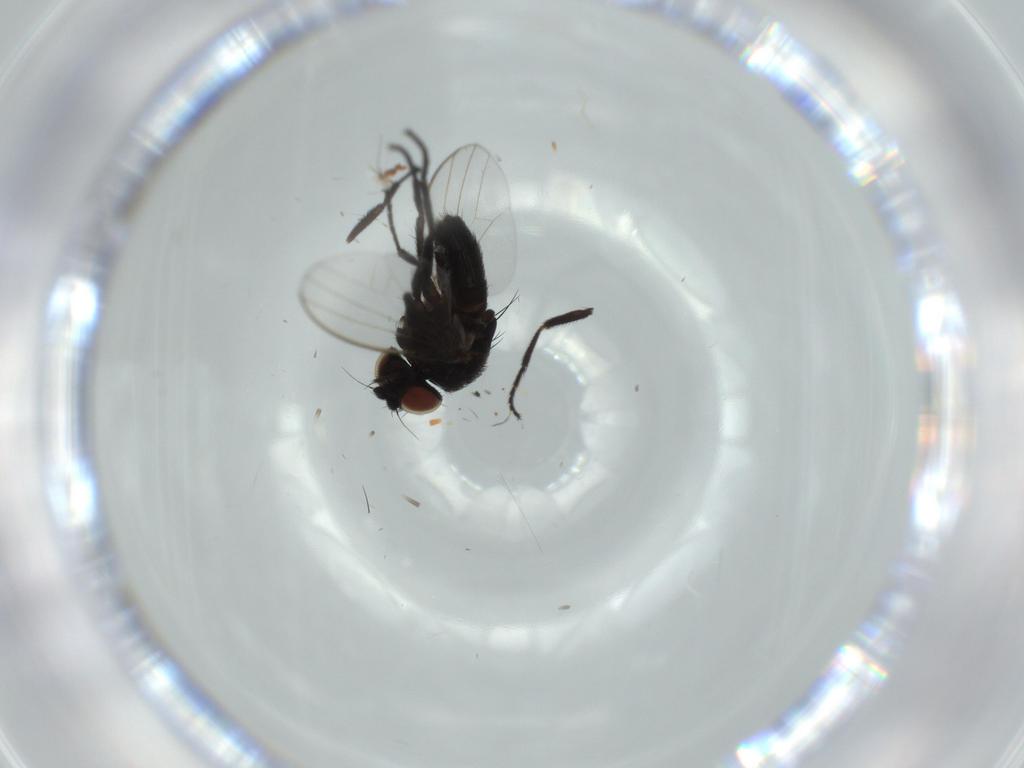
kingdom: Animalia
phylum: Arthropoda
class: Insecta
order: Diptera
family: Milichiidae
